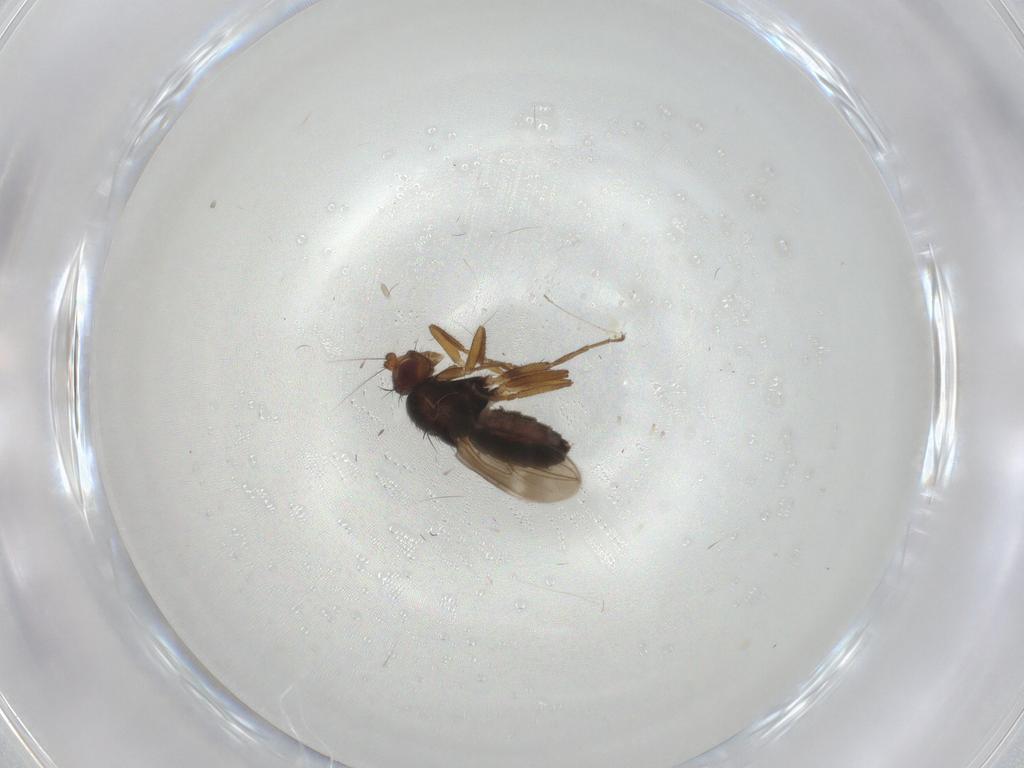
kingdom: Animalia
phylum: Arthropoda
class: Insecta
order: Diptera
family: Sphaeroceridae
